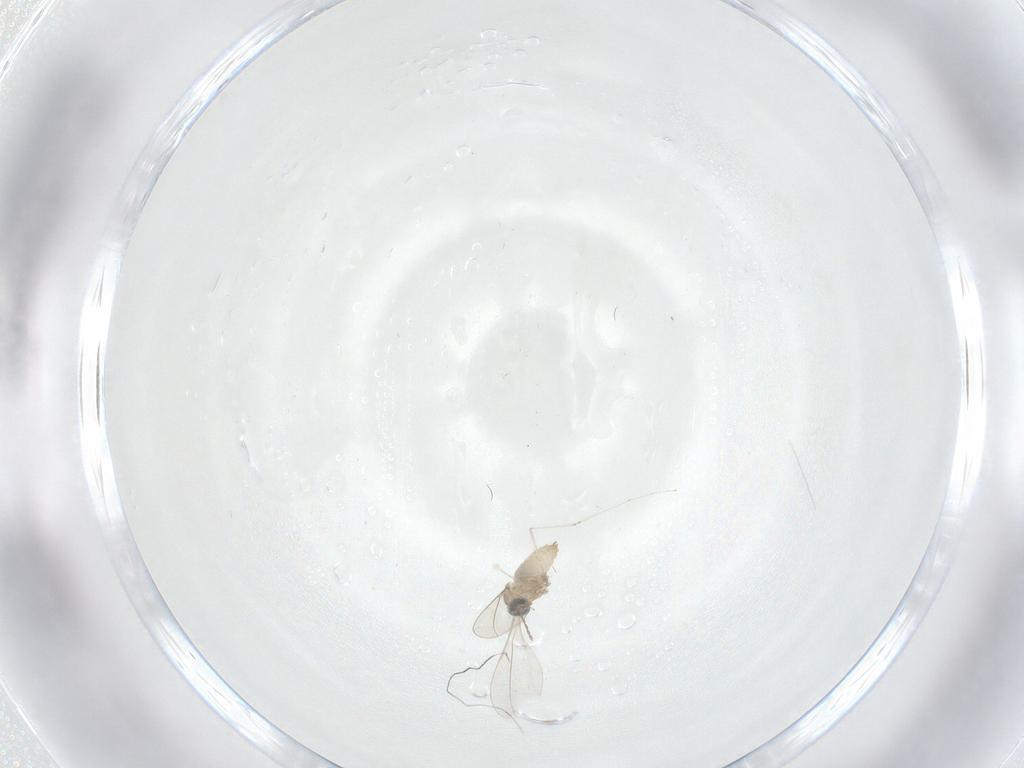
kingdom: Animalia
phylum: Arthropoda
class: Insecta
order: Diptera
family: Cecidomyiidae
